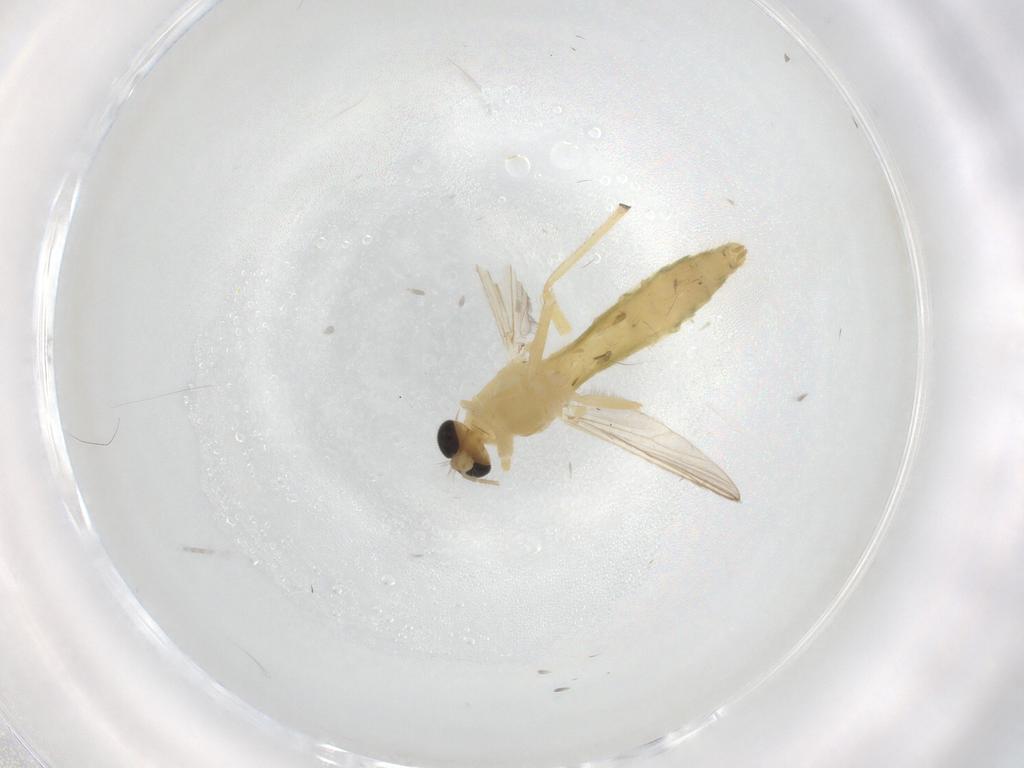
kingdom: Animalia
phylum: Arthropoda
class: Insecta
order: Diptera
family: Chironomidae
